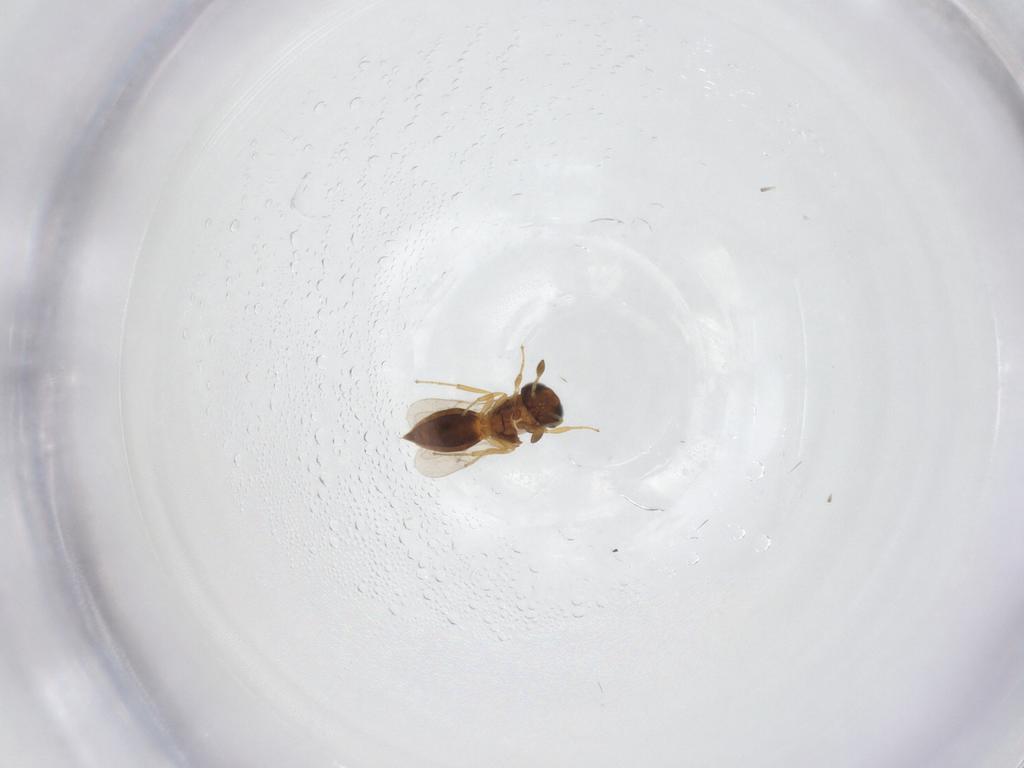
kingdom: Animalia
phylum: Arthropoda
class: Insecta
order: Hymenoptera
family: Scelionidae
